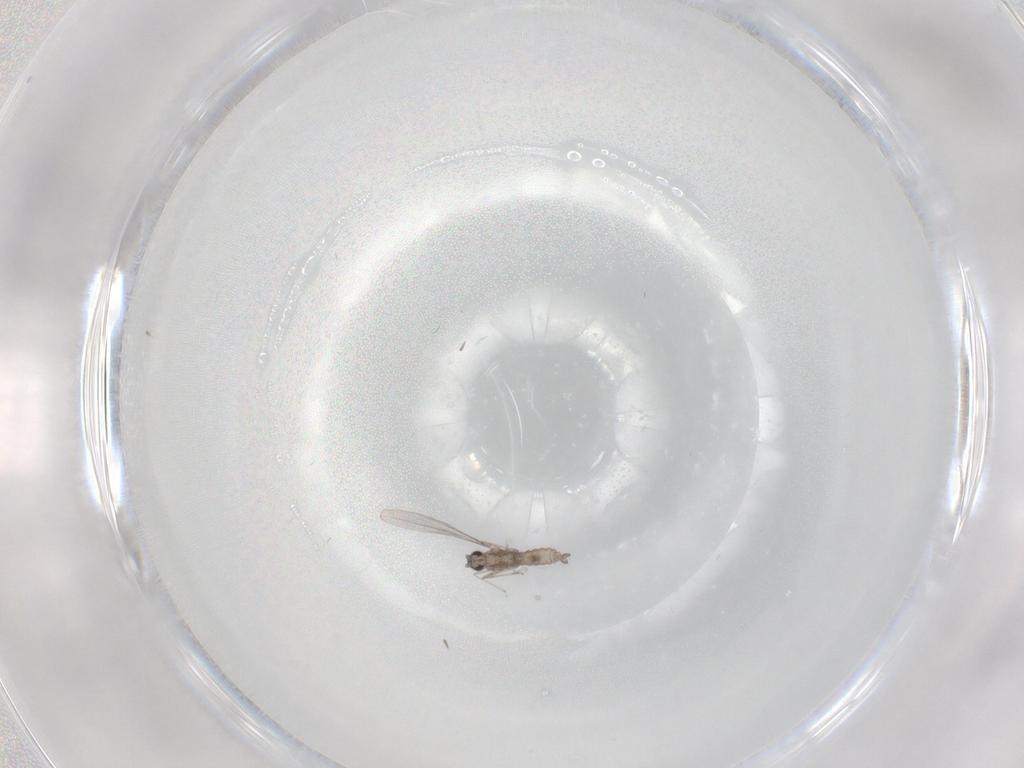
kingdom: Animalia
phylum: Arthropoda
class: Insecta
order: Diptera
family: Cecidomyiidae
